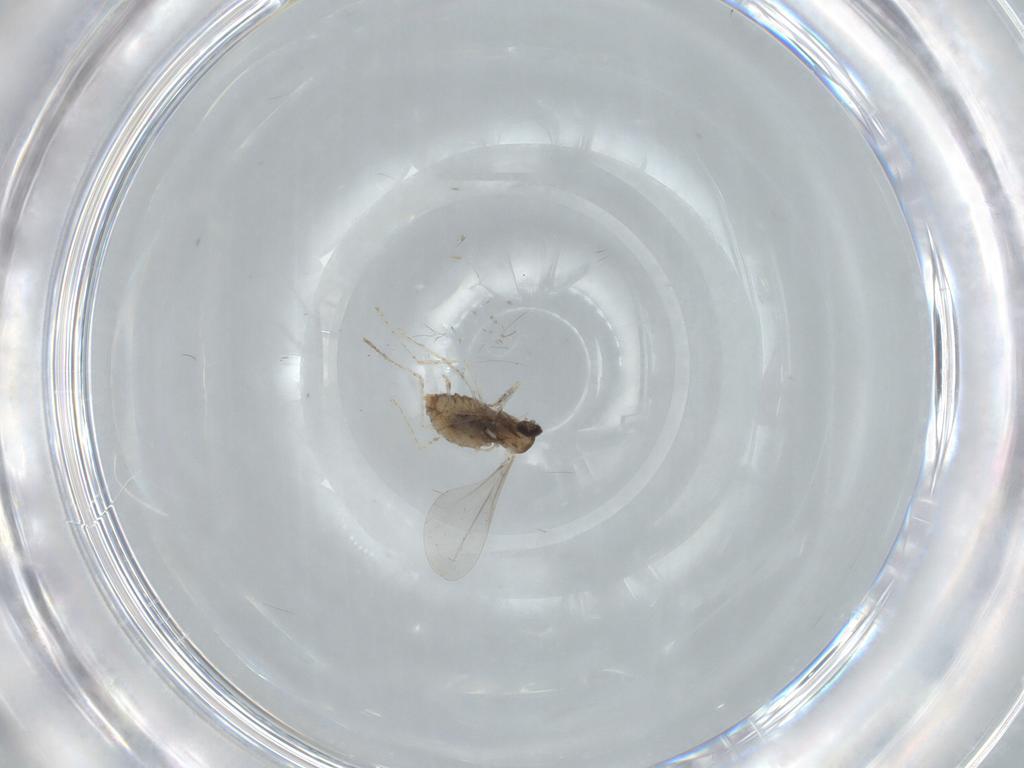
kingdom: Animalia
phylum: Arthropoda
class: Insecta
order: Diptera
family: Cecidomyiidae
